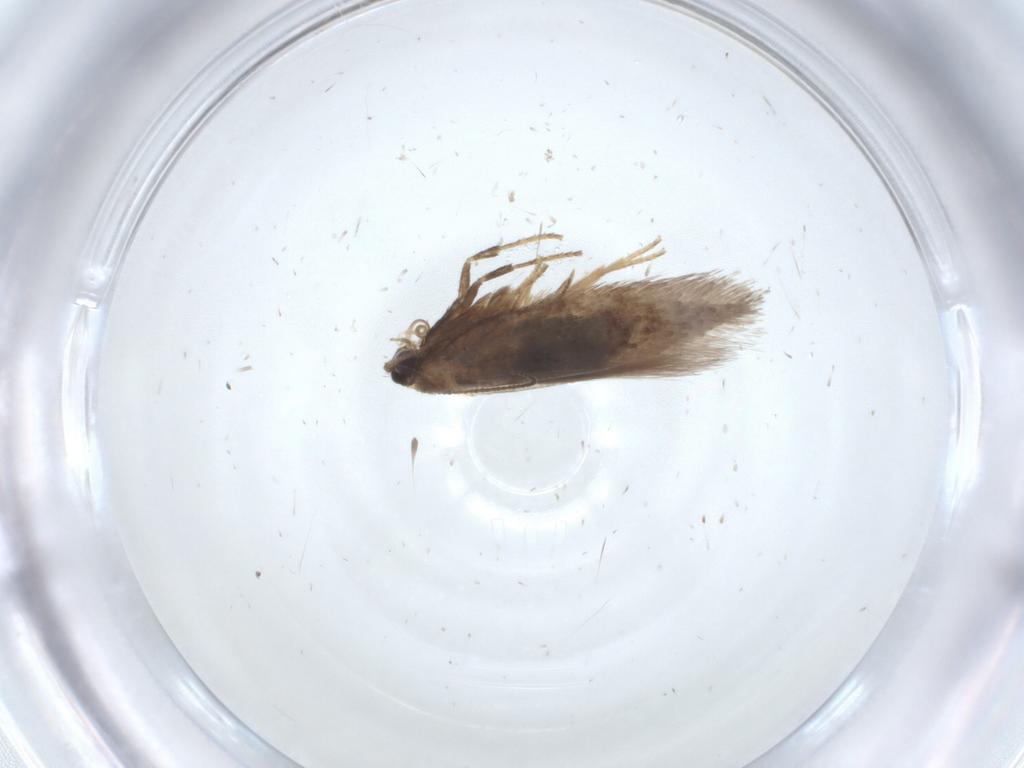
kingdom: Animalia
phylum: Arthropoda
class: Insecta
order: Lepidoptera
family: Nepticulidae
